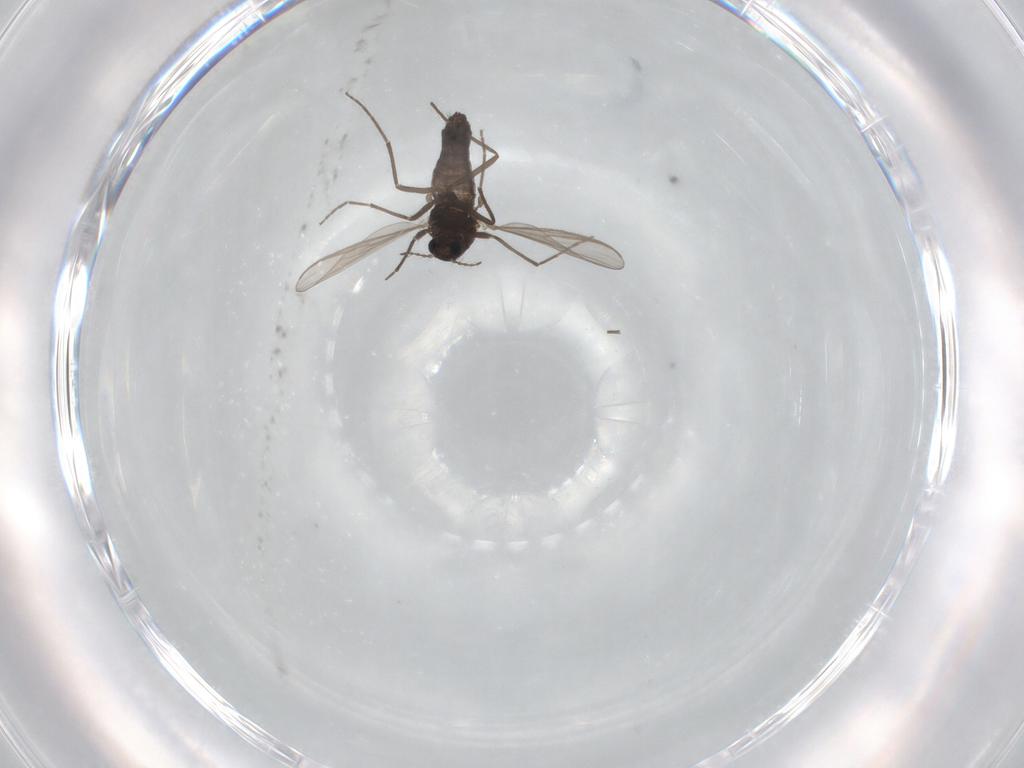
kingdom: Animalia
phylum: Arthropoda
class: Insecta
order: Diptera
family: Chironomidae
